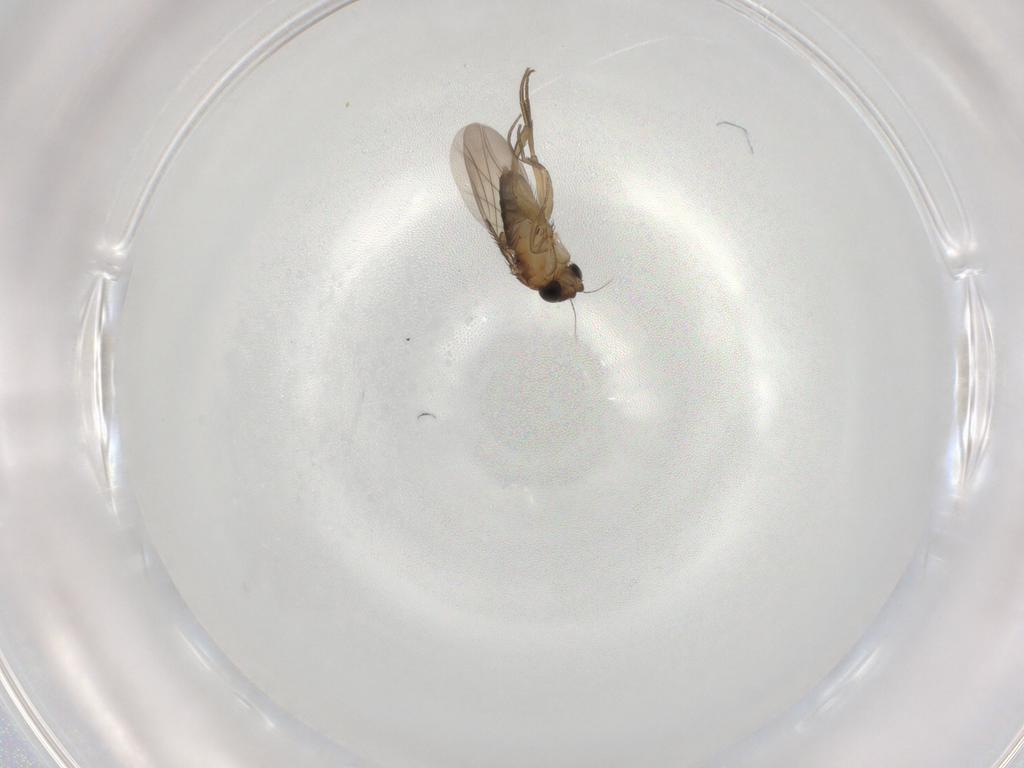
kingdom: Animalia
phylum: Arthropoda
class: Insecta
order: Diptera
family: Phoridae
